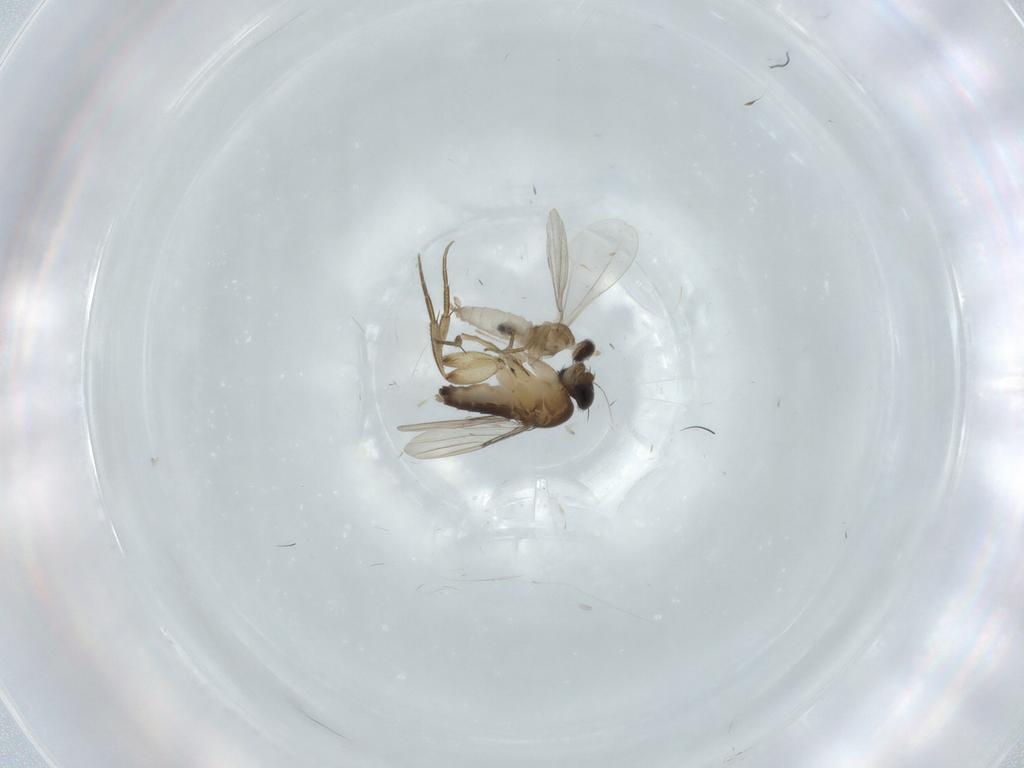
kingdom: Animalia
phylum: Arthropoda
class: Insecta
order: Diptera
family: Phoridae
